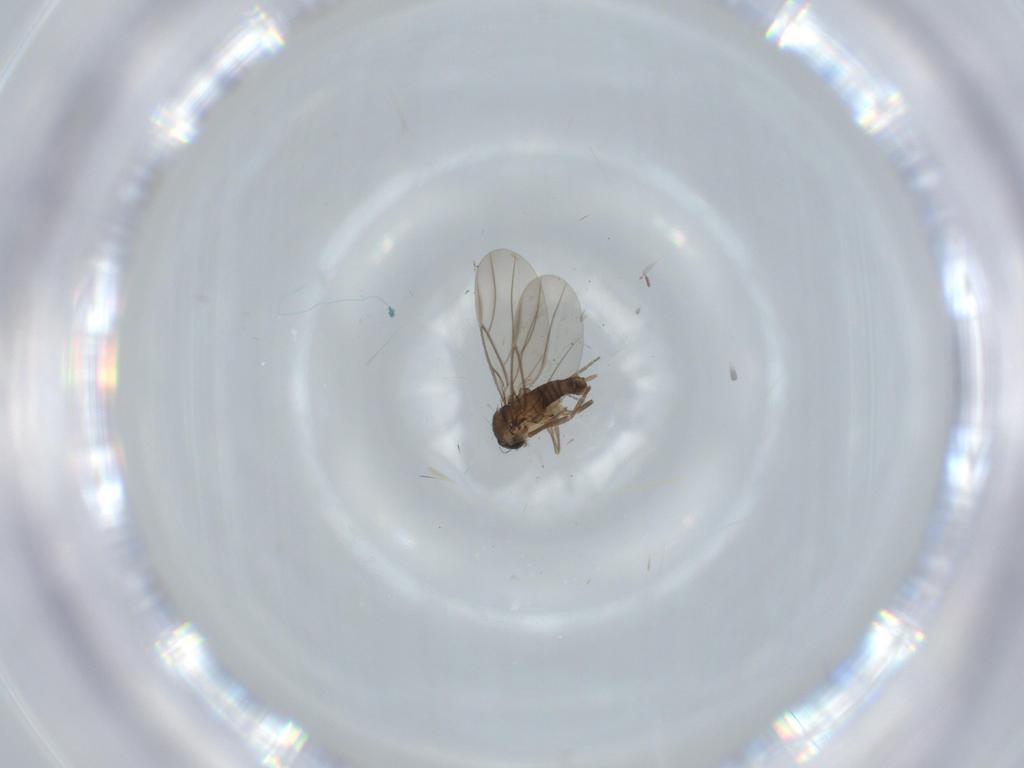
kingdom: Animalia
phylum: Arthropoda
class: Insecta
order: Diptera
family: Phoridae
